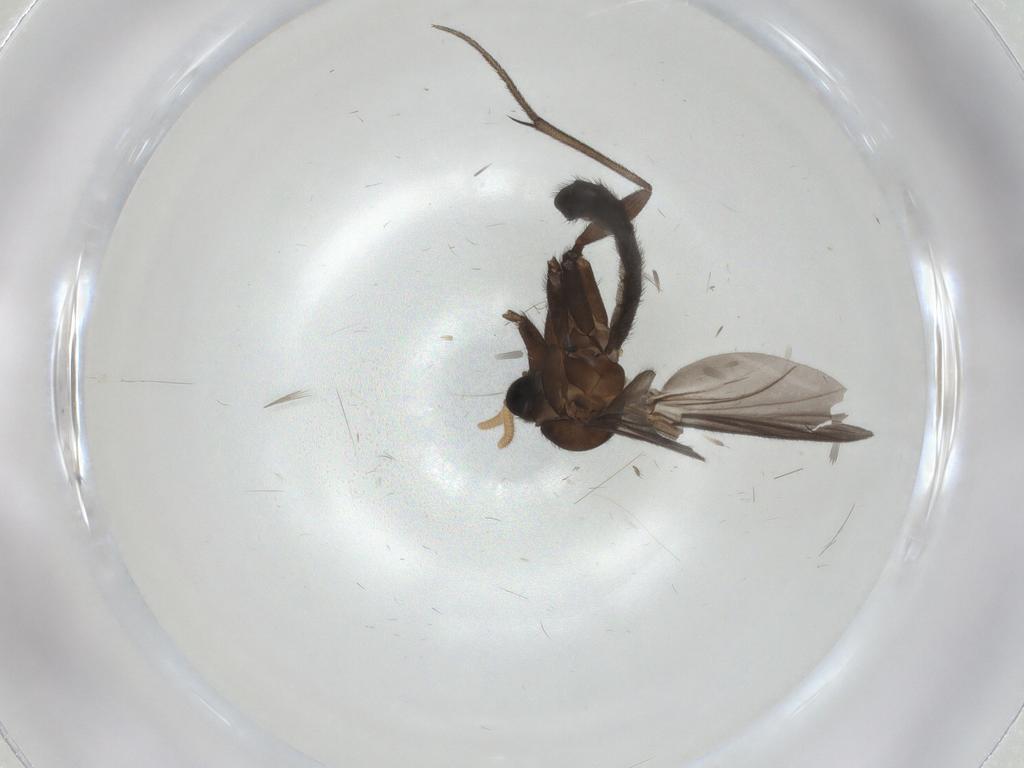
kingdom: Animalia
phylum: Arthropoda
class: Insecta
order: Diptera
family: Mycetophilidae
